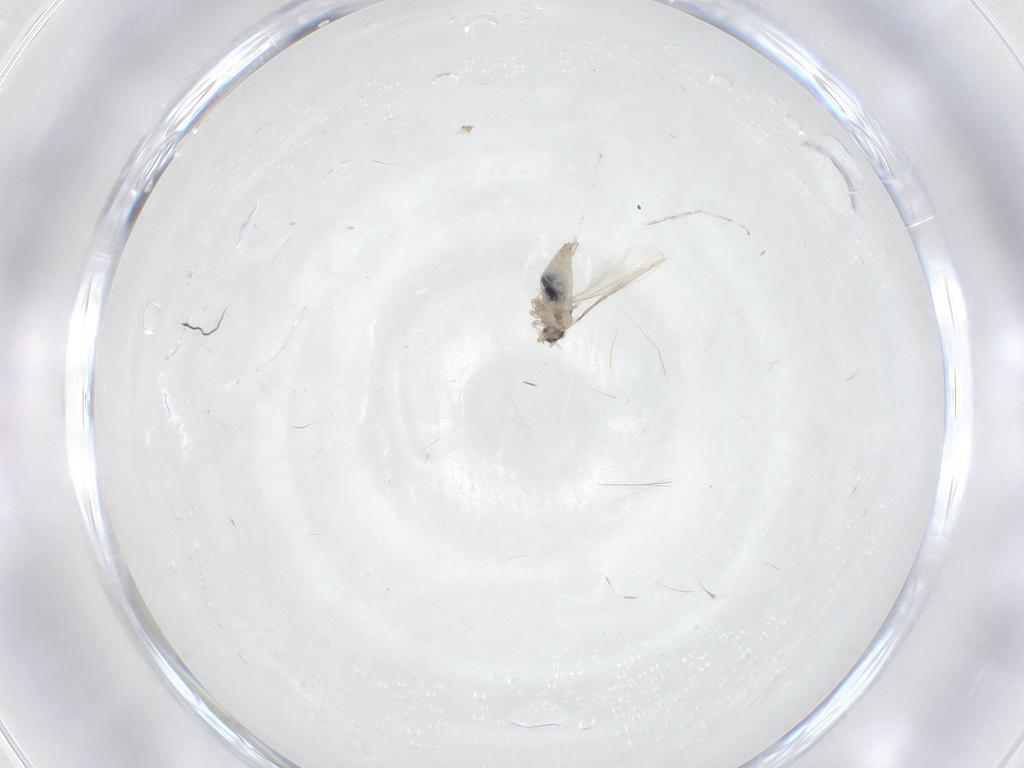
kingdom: Animalia
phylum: Arthropoda
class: Insecta
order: Diptera
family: Cecidomyiidae
